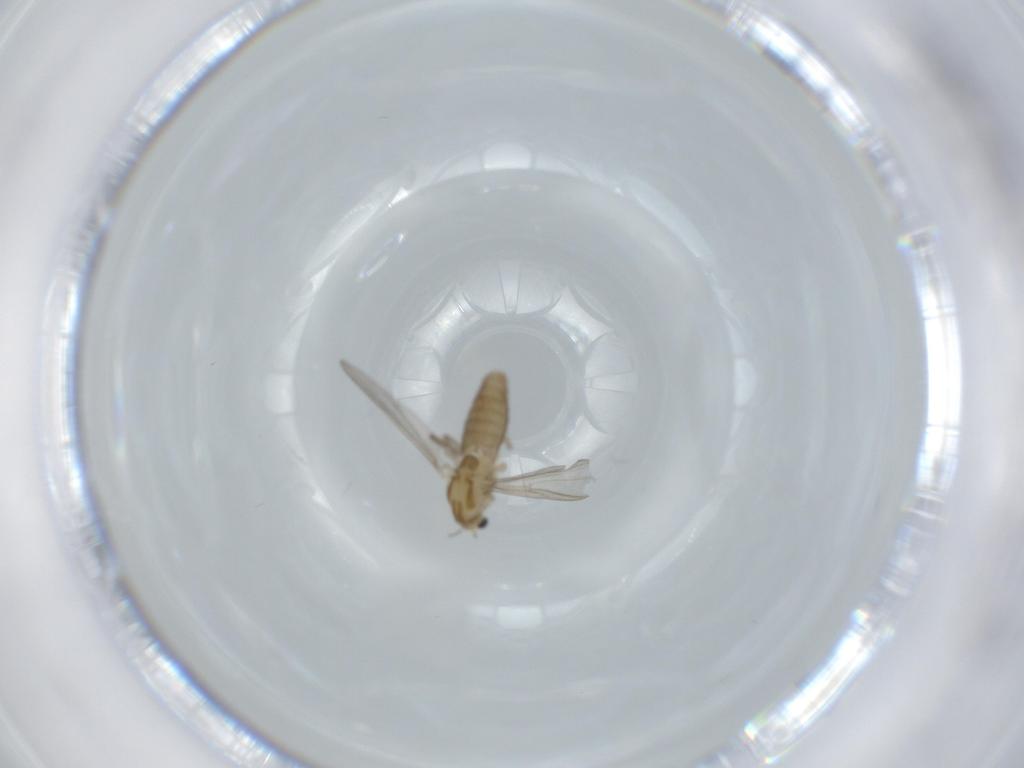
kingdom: Animalia
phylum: Arthropoda
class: Insecta
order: Diptera
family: Chironomidae
